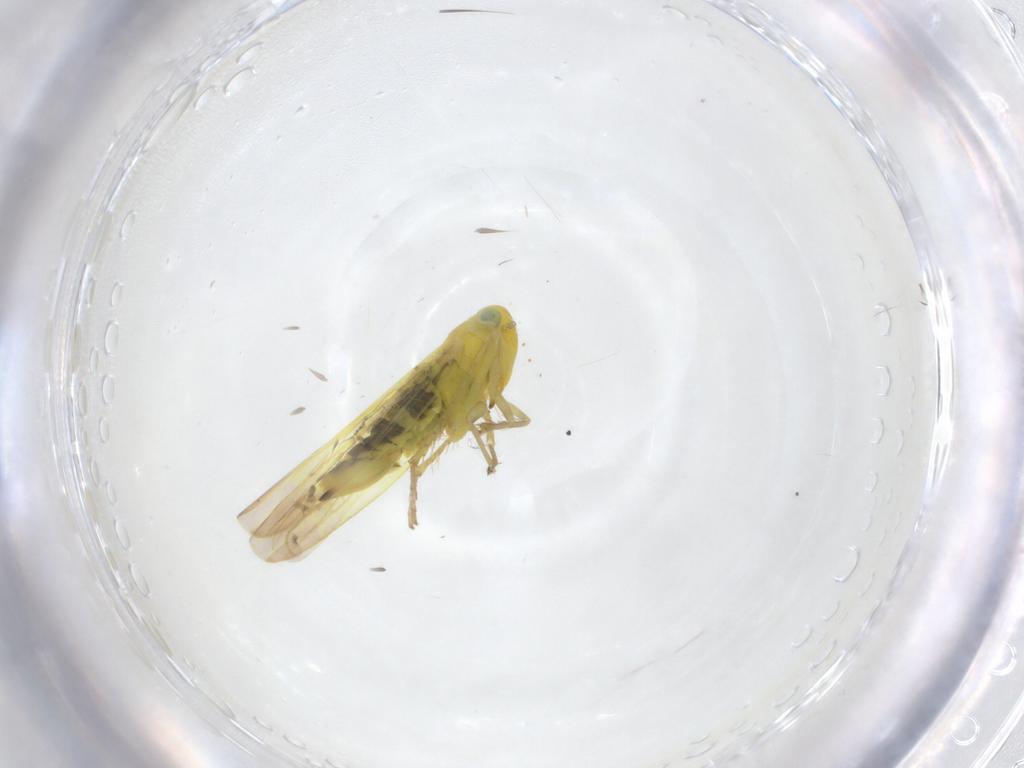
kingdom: Animalia
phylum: Arthropoda
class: Insecta
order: Hemiptera
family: Cicadellidae
